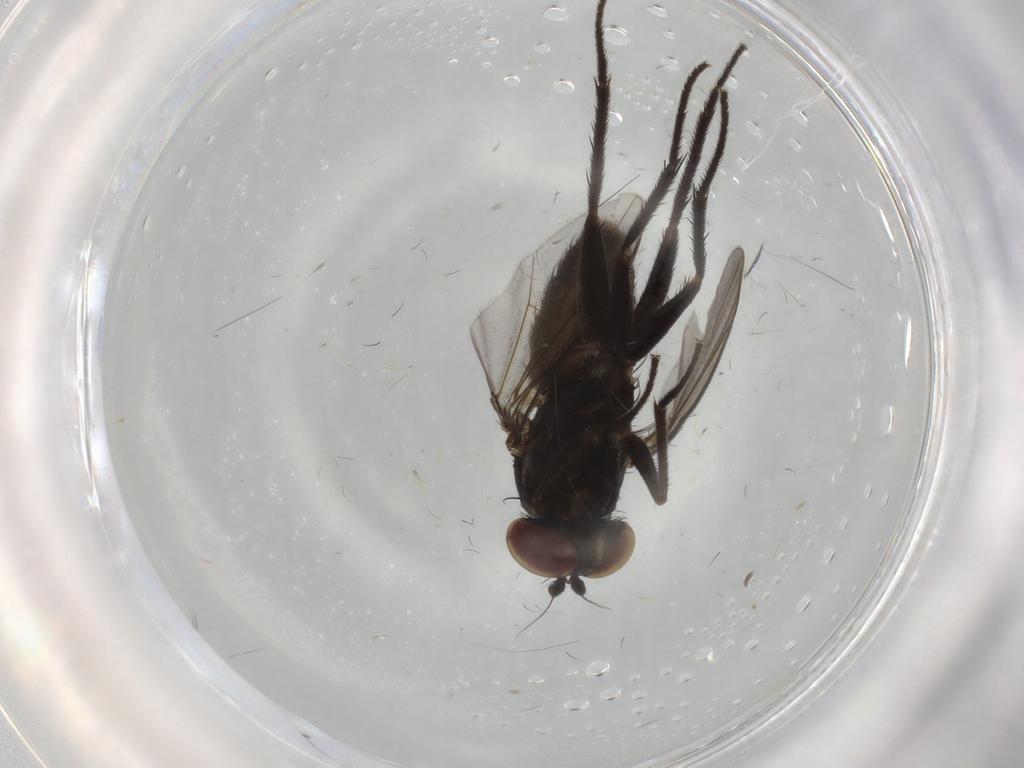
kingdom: Animalia
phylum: Arthropoda
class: Insecta
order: Diptera
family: Dolichopodidae
